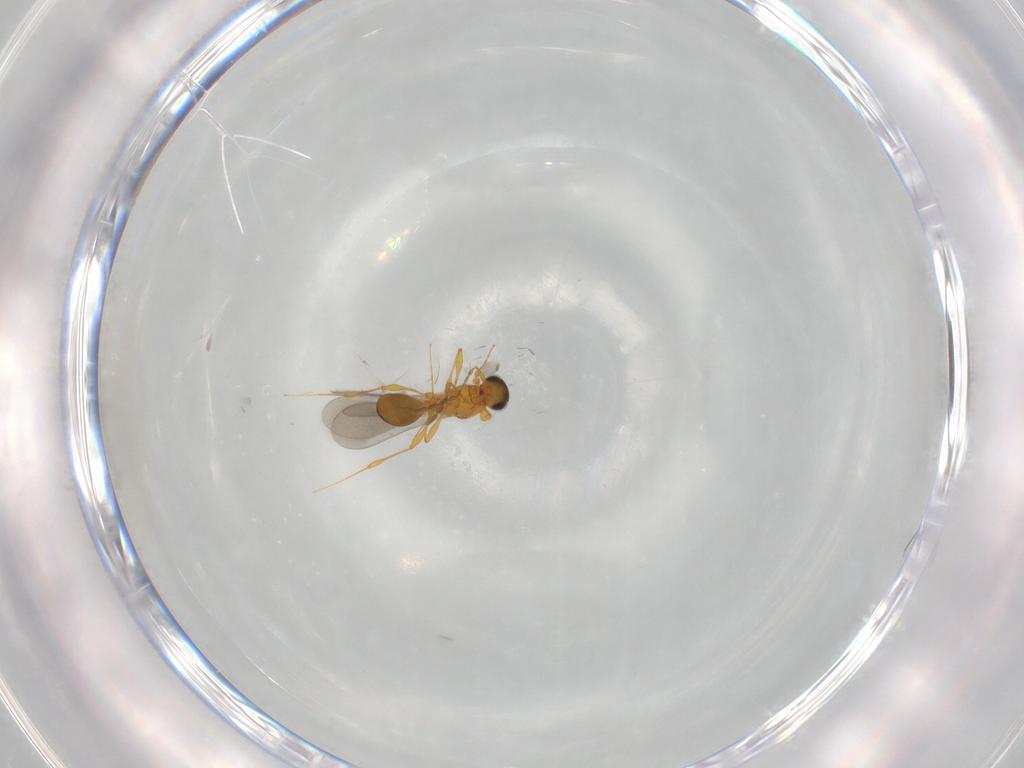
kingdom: Animalia
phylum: Arthropoda
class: Insecta
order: Hymenoptera
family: Platygastridae
